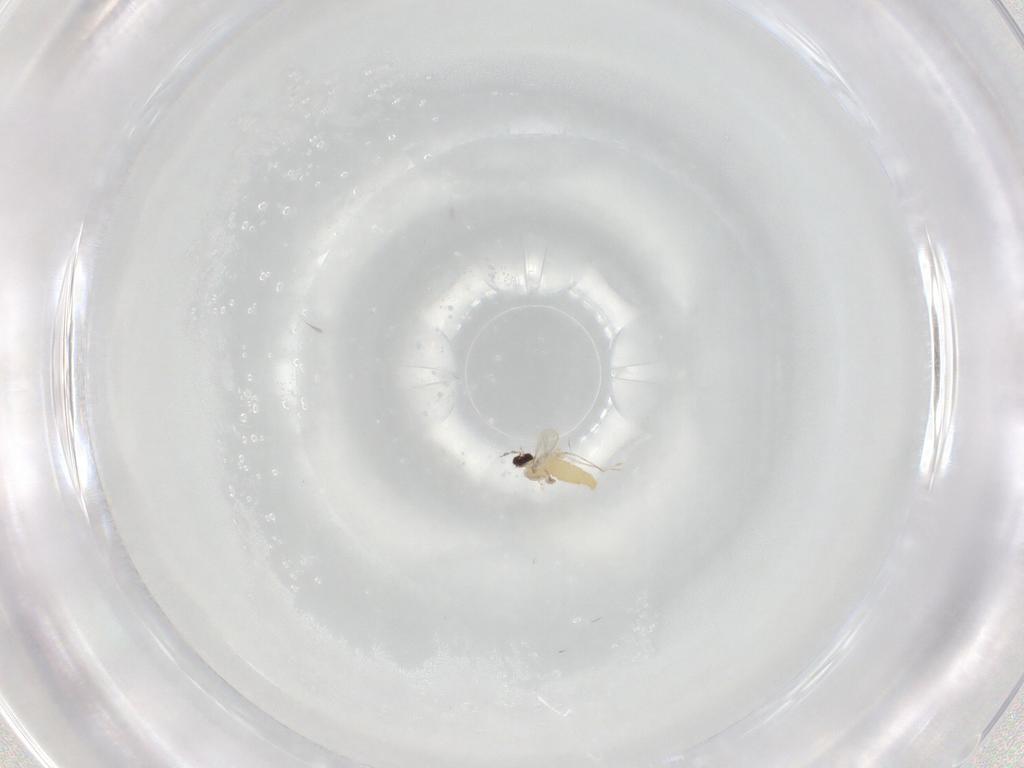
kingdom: Animalia
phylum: Arthropoda
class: Insecta
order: Diptera
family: Cecidomyiidae
